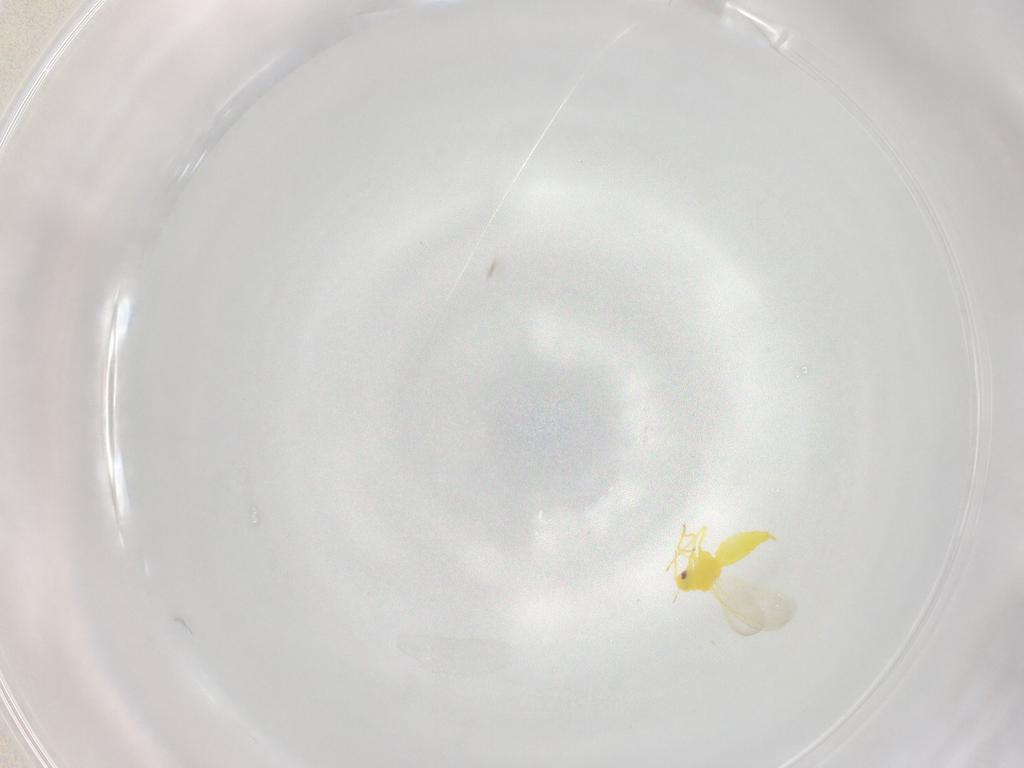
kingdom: Animalia
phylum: Arthropoda
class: Insecta
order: Hemiptera
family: Aleyrodidae
